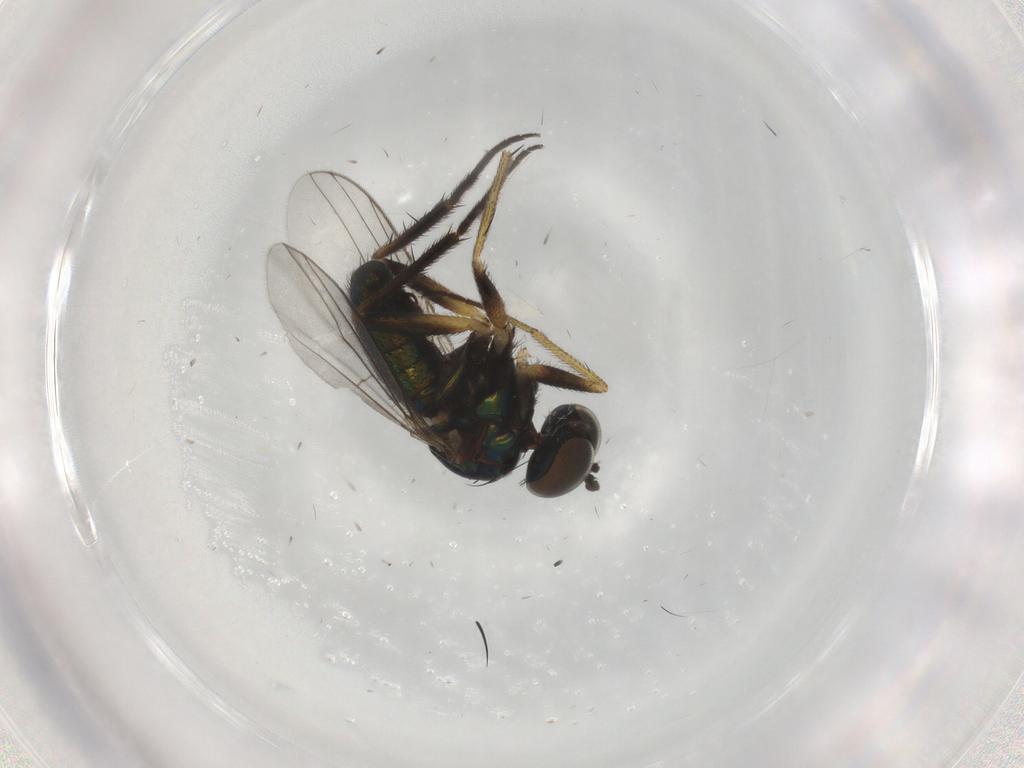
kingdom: Animalia
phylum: Arthropoda
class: Insecta
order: Diptera
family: Dolichopodidae
